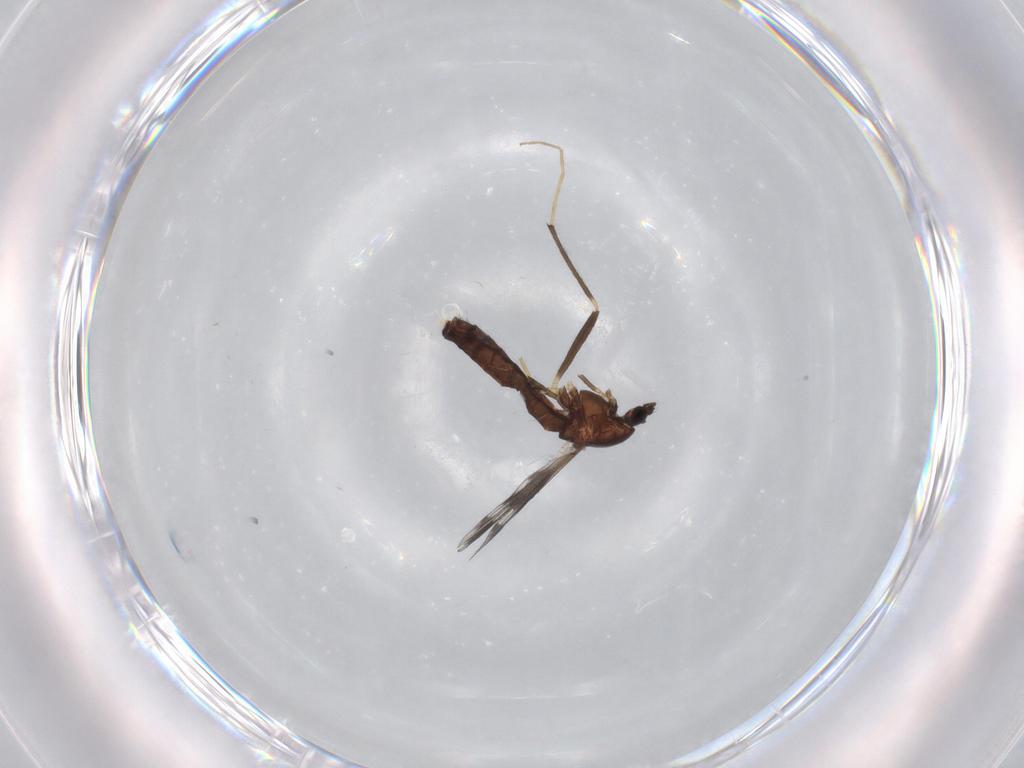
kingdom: Animalia
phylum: Arthropoda
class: Insecta
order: Diptera
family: Chironomidae
